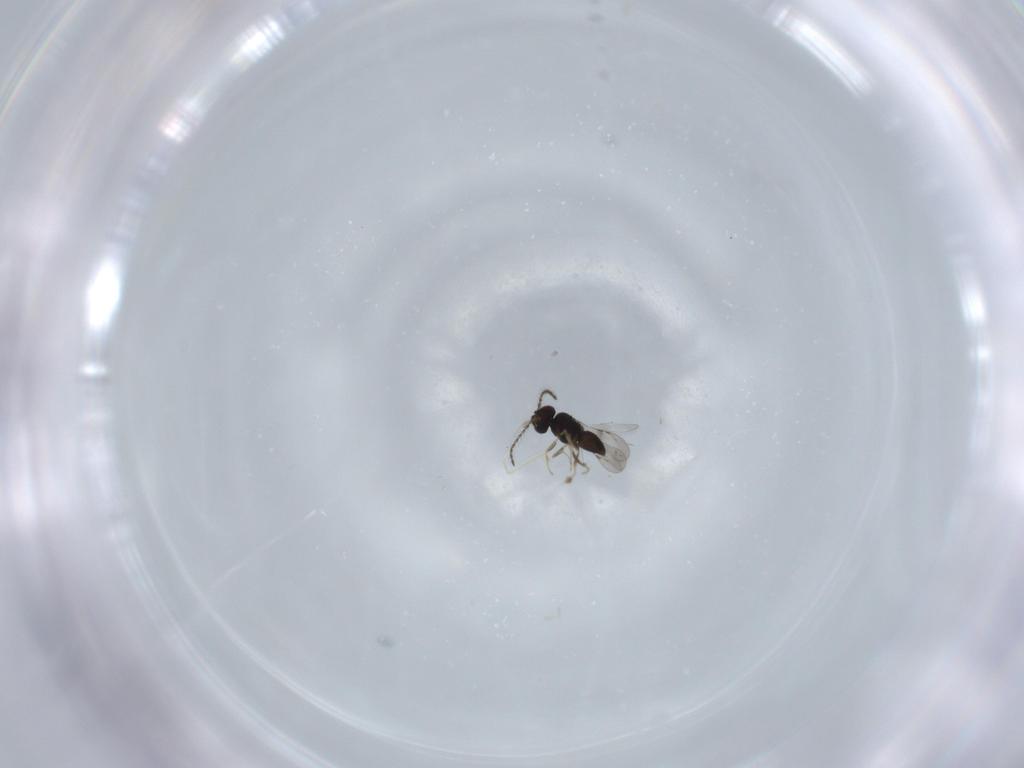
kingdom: Animalia
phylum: Arthropoda
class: Insecta
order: Hymenoptera
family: Ceraphronidae
